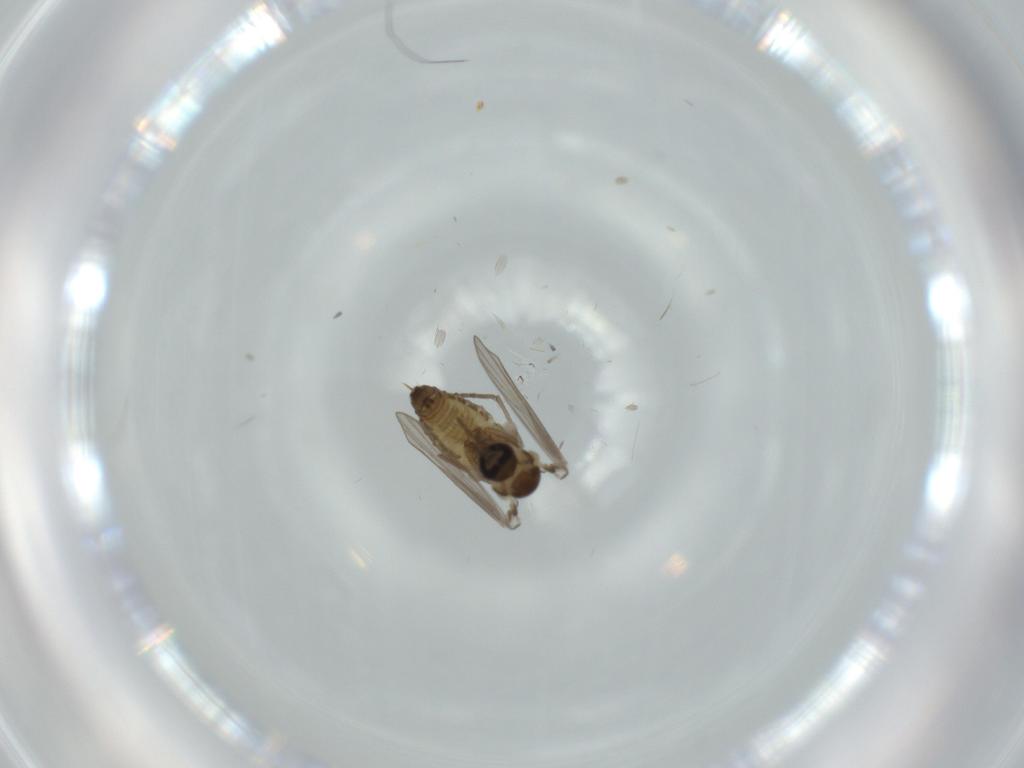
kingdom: Animalia
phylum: Arthropoda
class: Insecta
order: Diptera
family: Psychodidae
